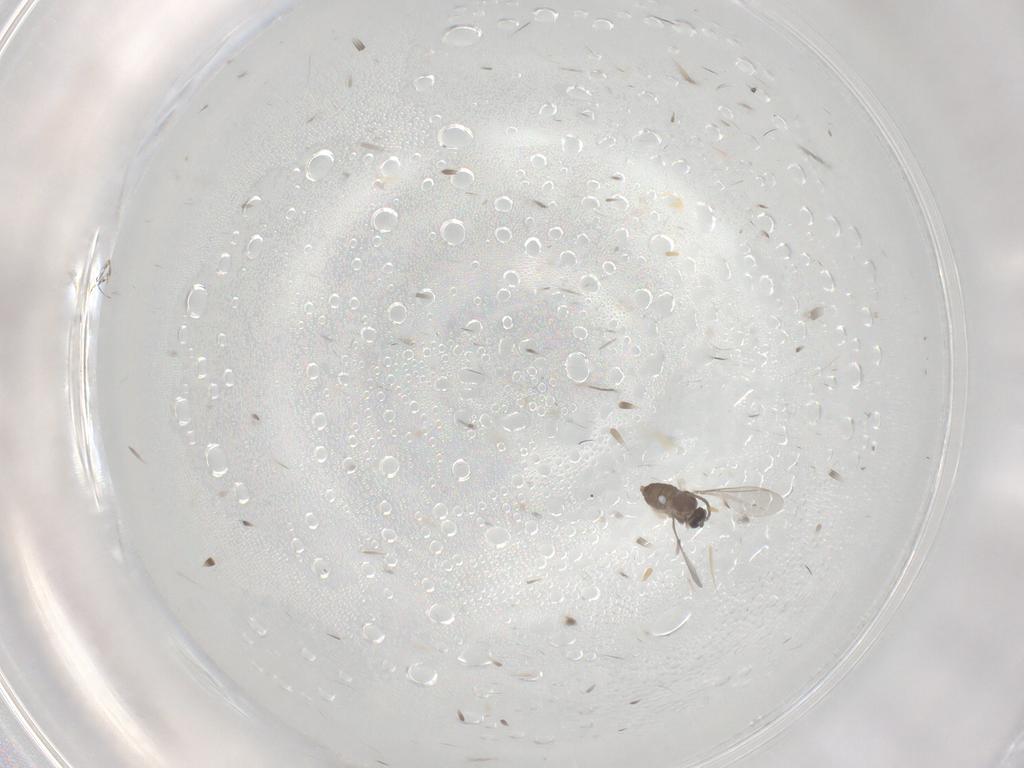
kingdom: Animalia
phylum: Arthropoda
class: Insecta
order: Diptera
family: Cecidomyiidae
